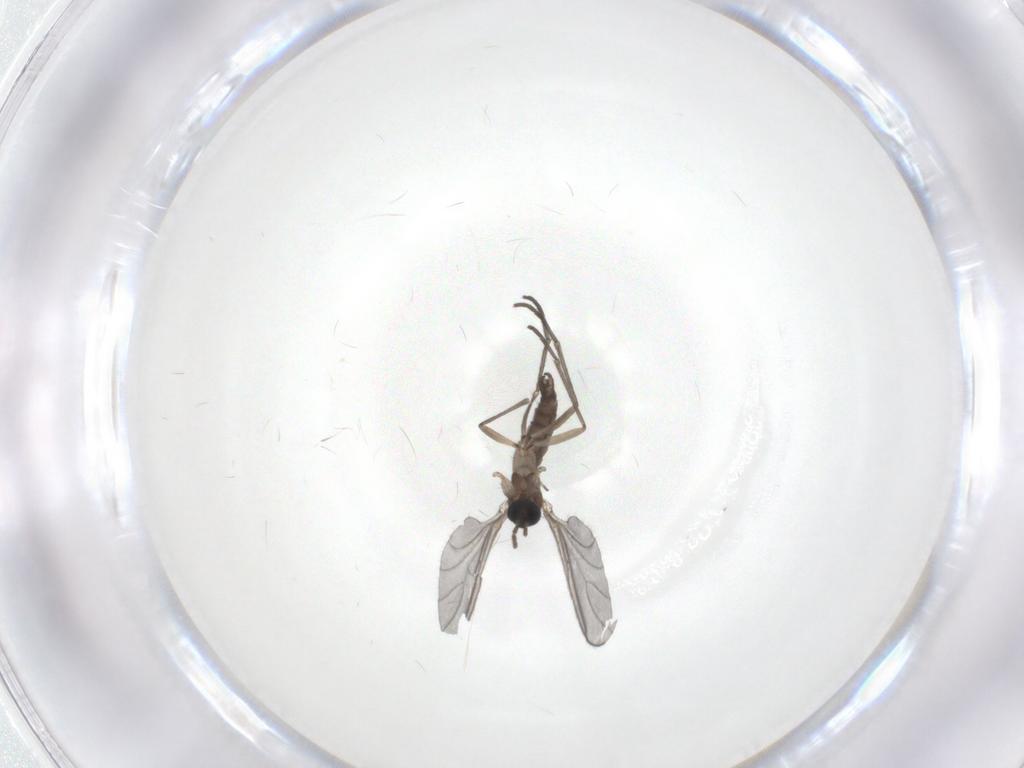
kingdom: Animalia
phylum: Arthropoda
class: Insecta
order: Diptera
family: Sciaridae
